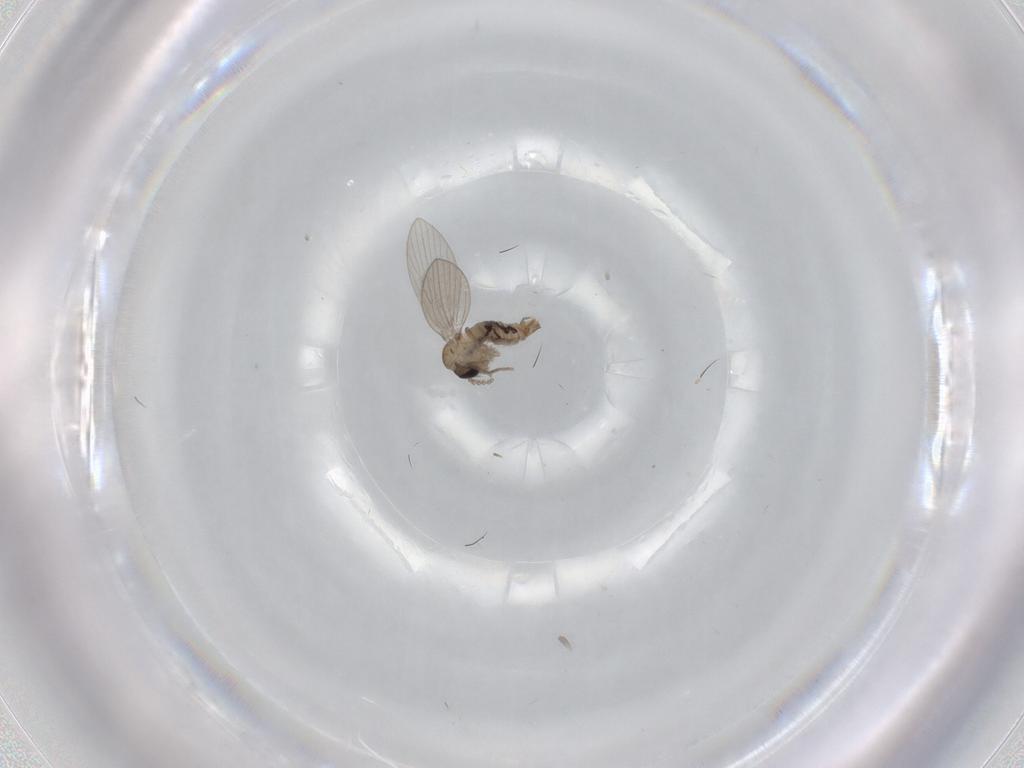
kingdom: Animalia
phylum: Arthropoda
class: Insecta
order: Diptera
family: Psychodidae
